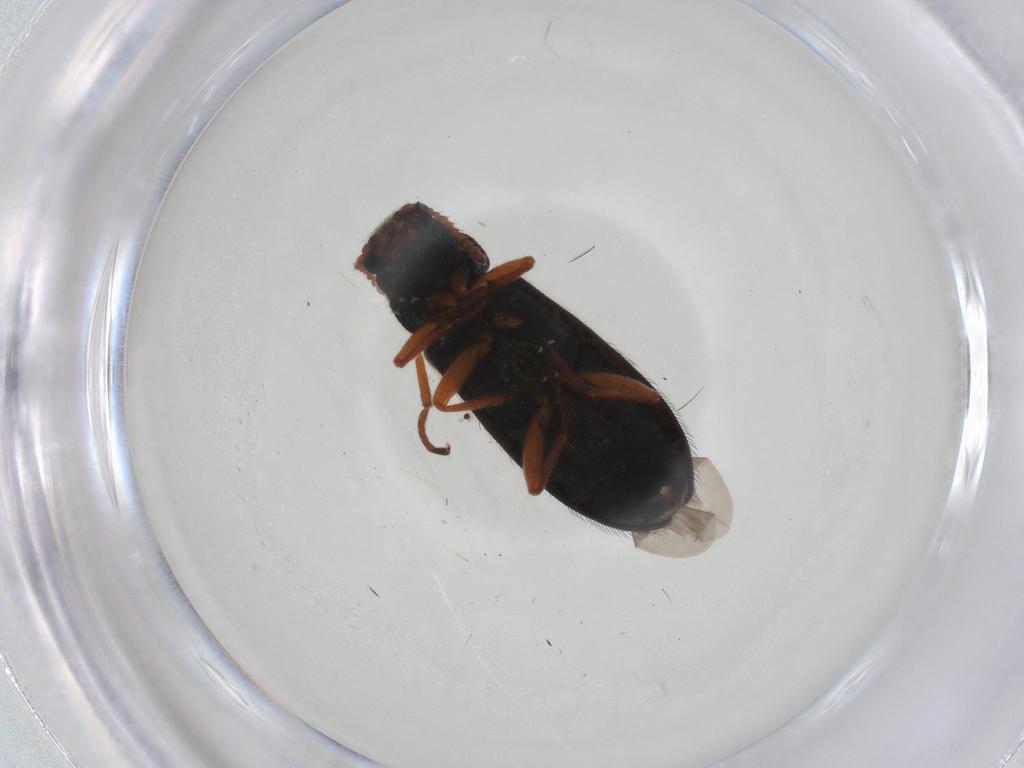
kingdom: Animalia
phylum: Arthropoda
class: Insecta
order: Coleoptera
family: Melyridae
